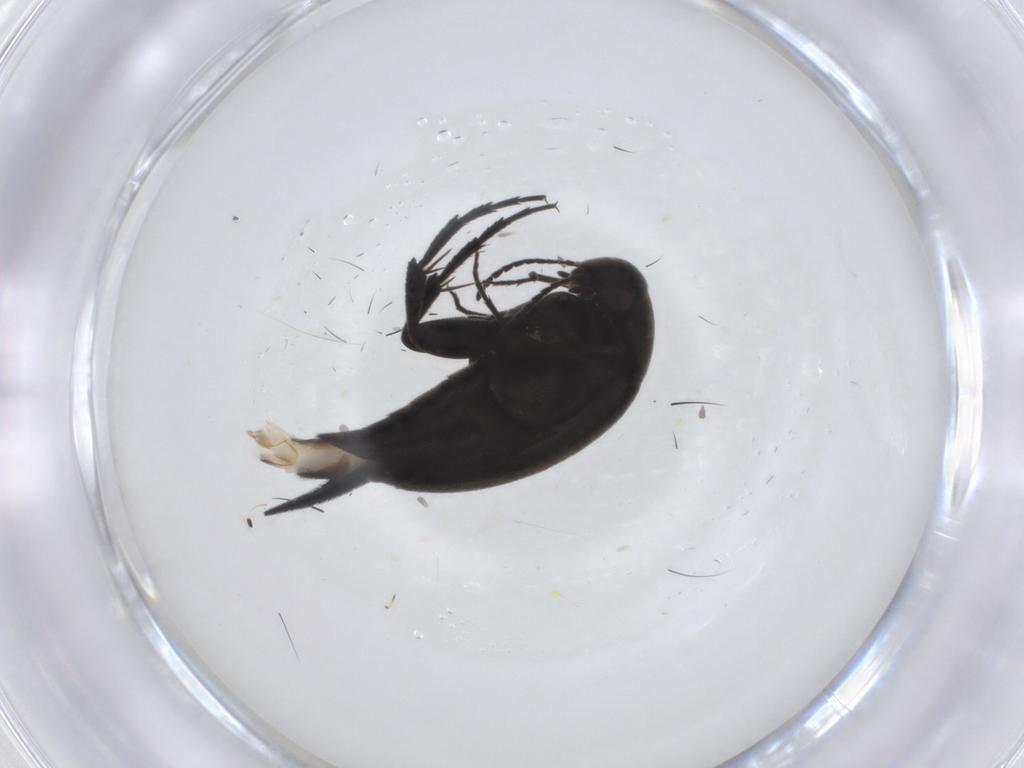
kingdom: Animalia
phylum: Arthropoda
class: Insecta
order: Coleoptera
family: Mordellidae
